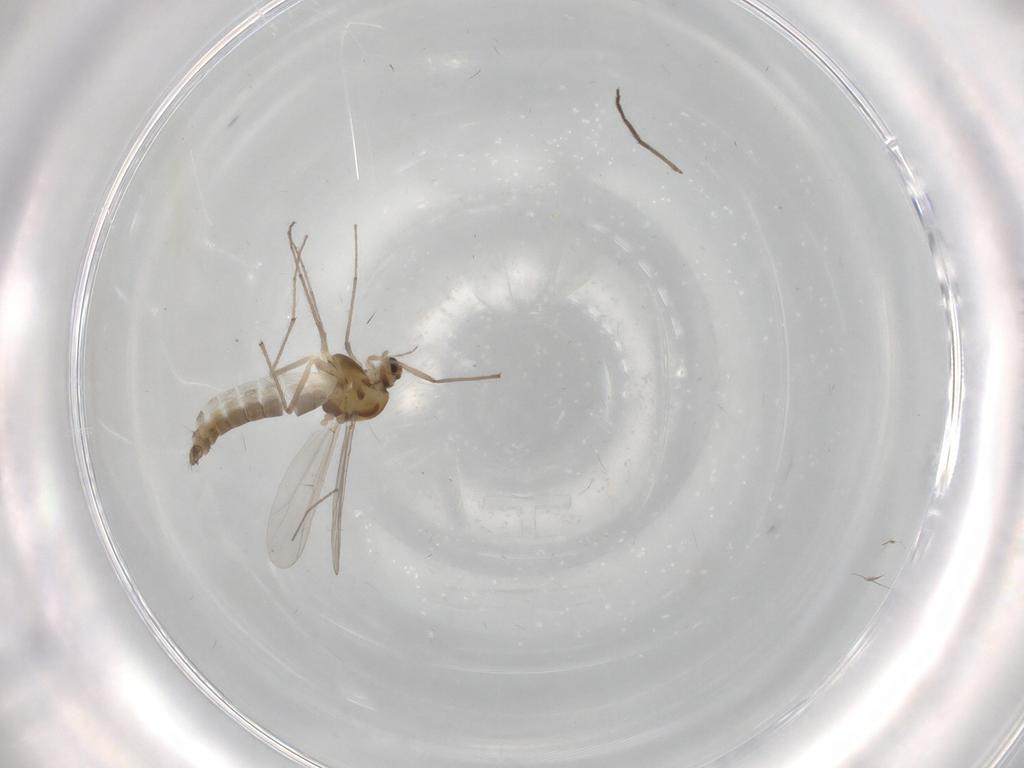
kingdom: Animalia
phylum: Arthropoda
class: Insecta
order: Diptera
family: Chironomidae
